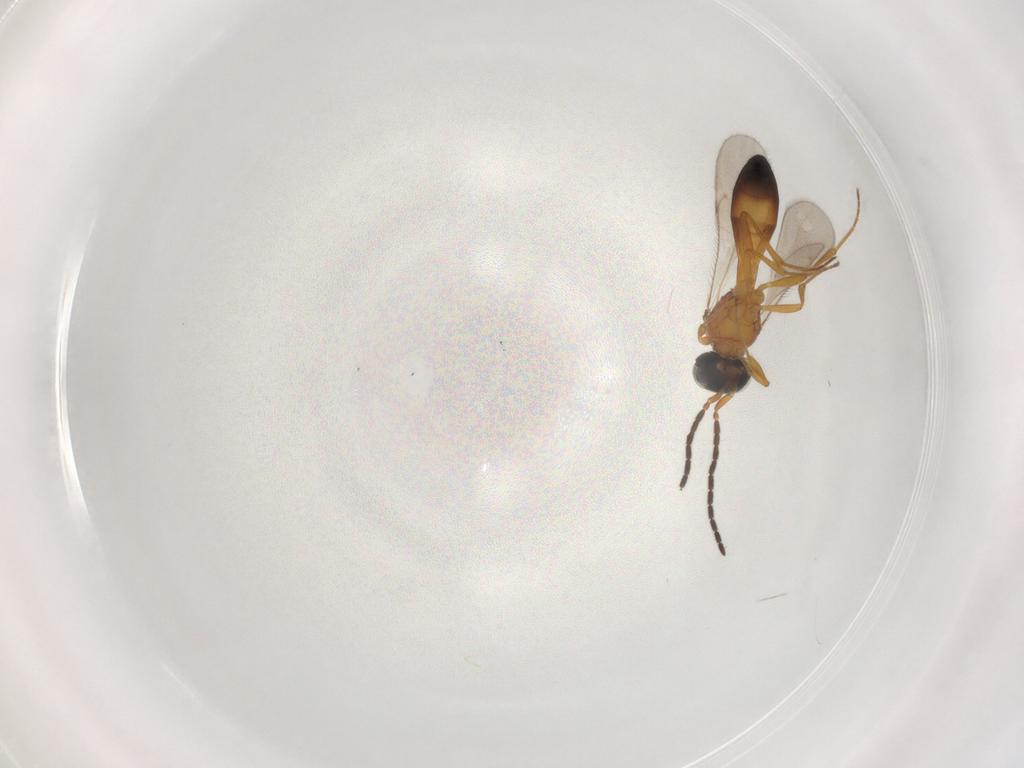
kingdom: Animalia
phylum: Arthropoda
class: Insecta
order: Hymenoptera
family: Scelionidae
